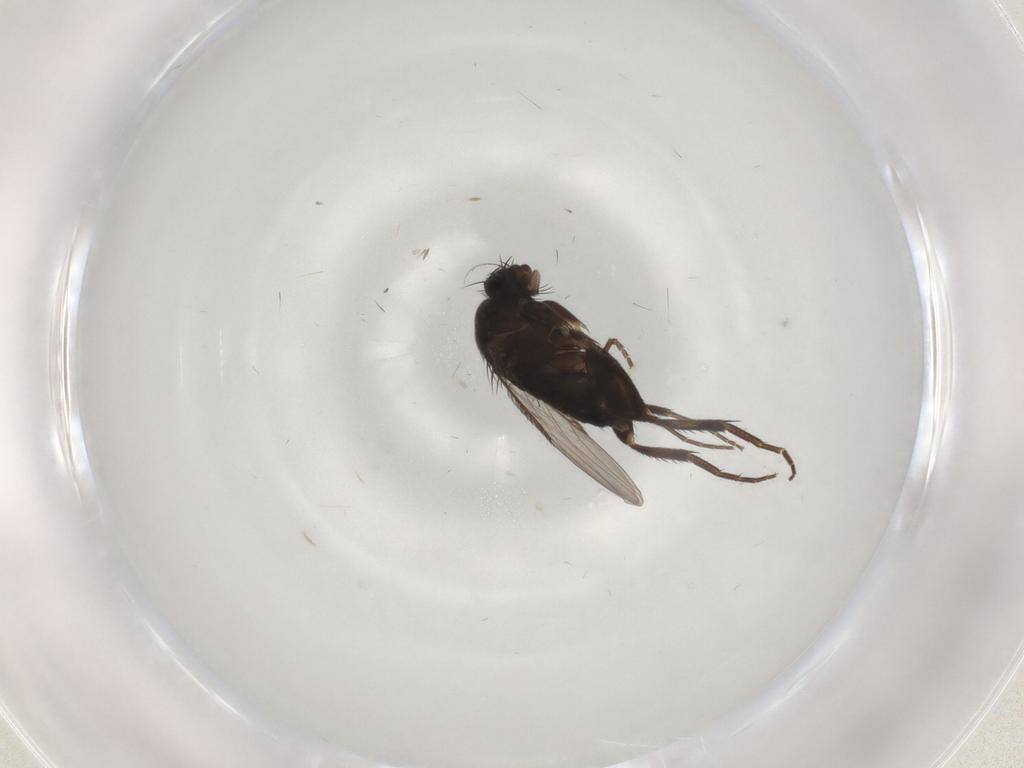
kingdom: Animalia
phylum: Arthropoda
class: Insecta
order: Diptera
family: Phoridae
